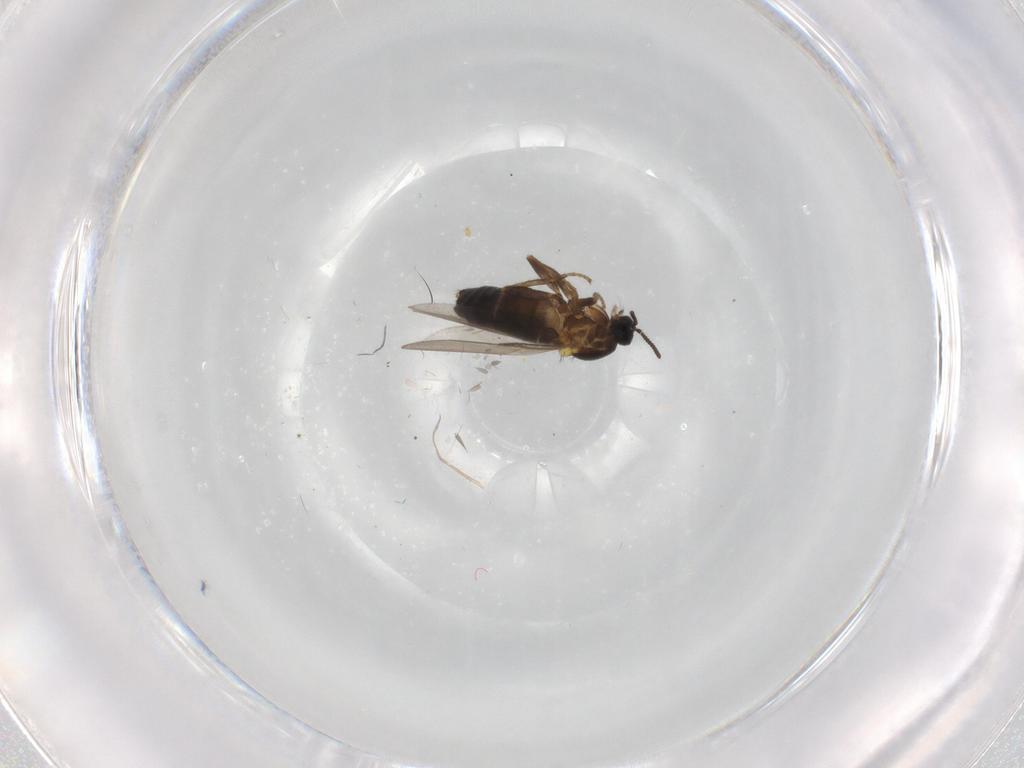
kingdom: Animalia
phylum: Arthropoda
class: Insecta
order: Diptera
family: Scatopsidae
